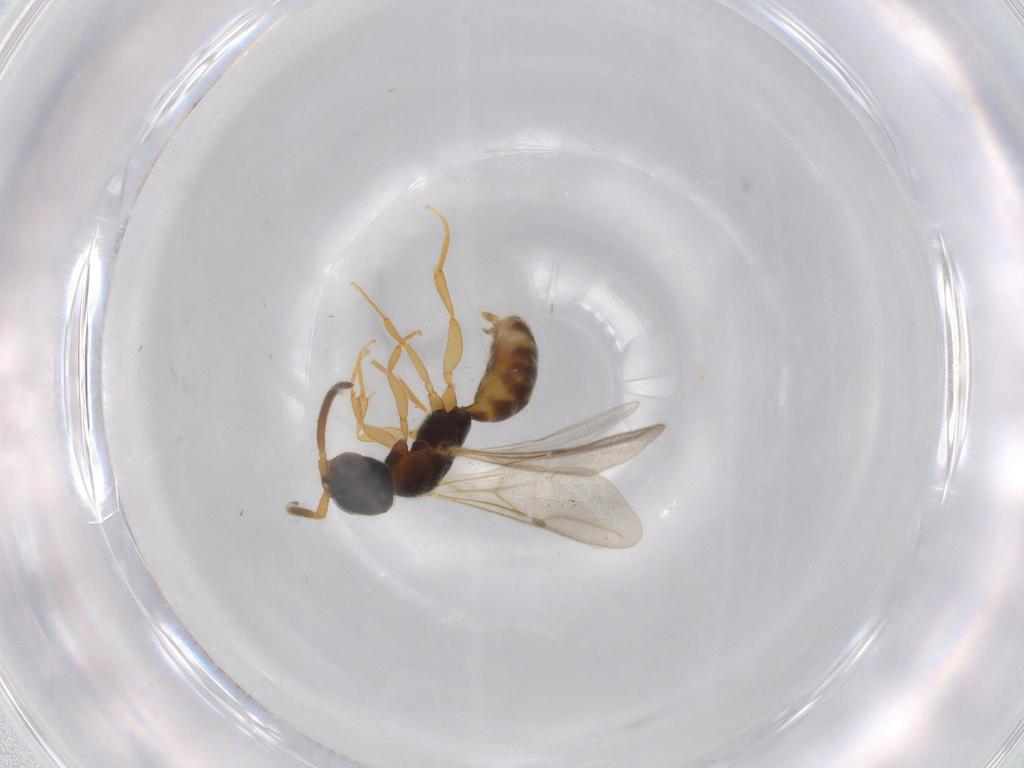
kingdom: Animalia
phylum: Arthropoda
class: Insecta
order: Hymenoptera
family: Bethylidae
